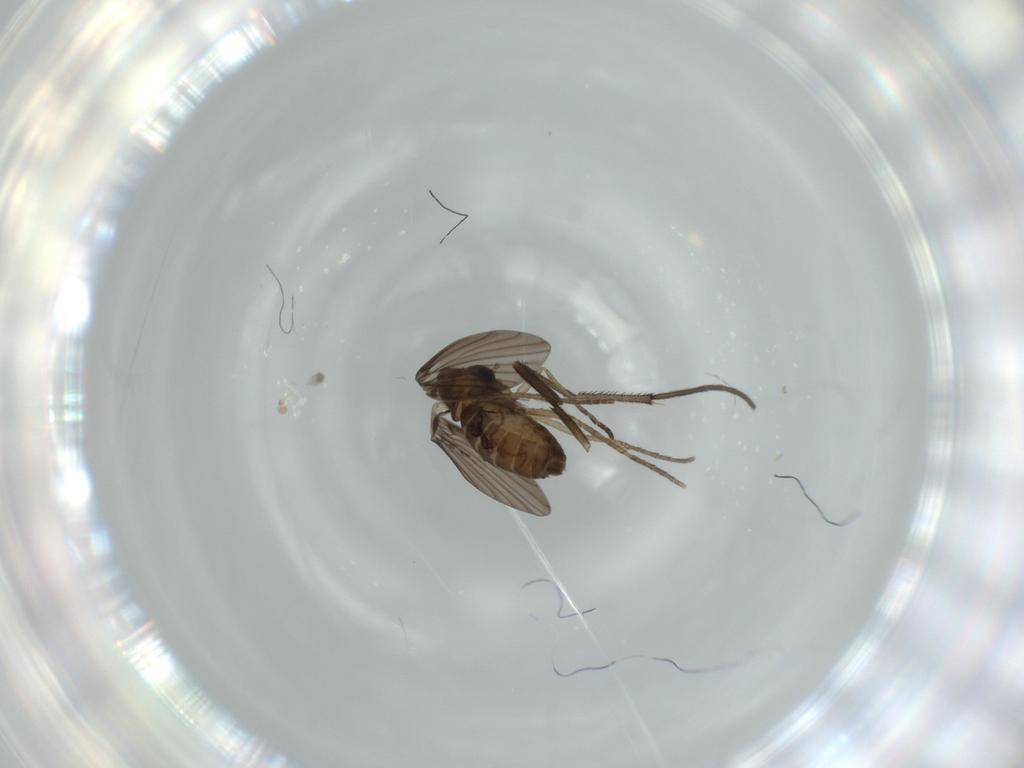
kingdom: Animalia
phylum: Arthropoda
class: Insecta
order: Diptera
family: Sciaridae
